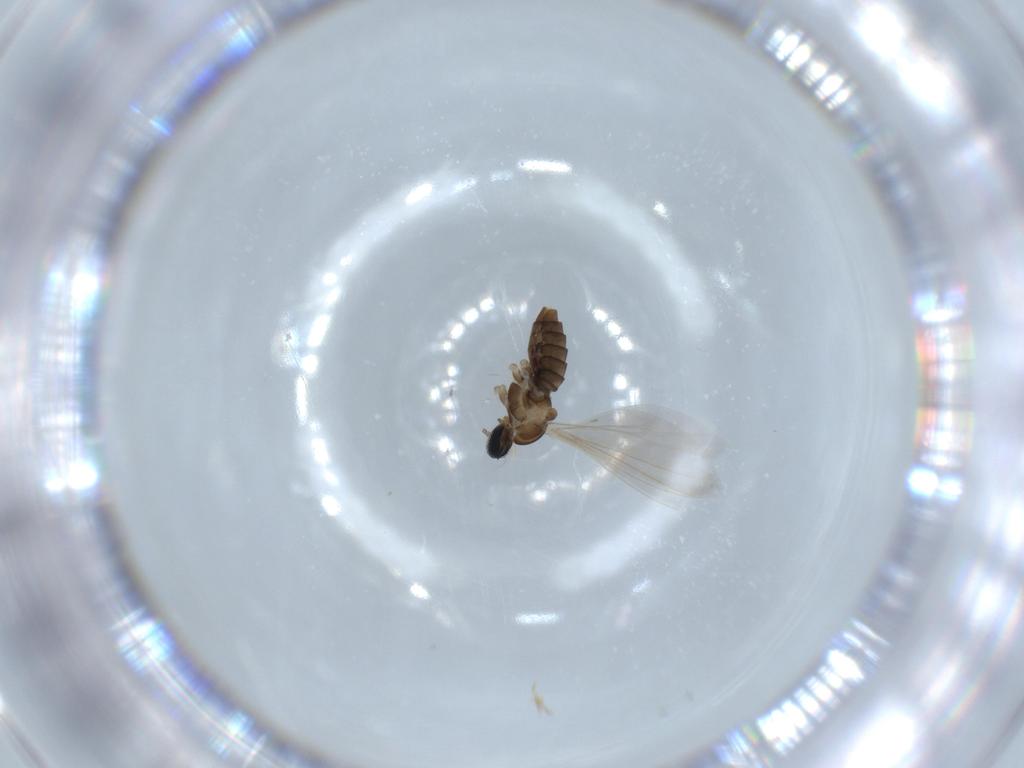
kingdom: Animalia
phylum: Arthropoda
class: Insecta
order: Diptera
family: Cecidomyiidae
